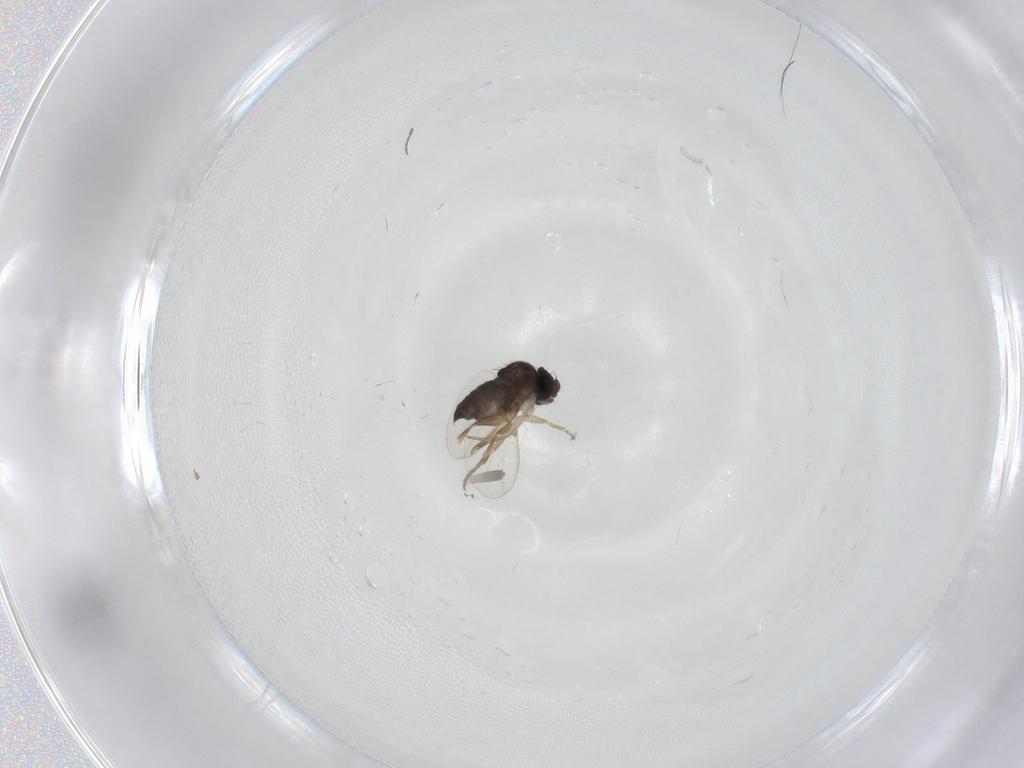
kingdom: Animalia
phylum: Arthropoda
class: Insecta
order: Diptera
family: Phoridae
